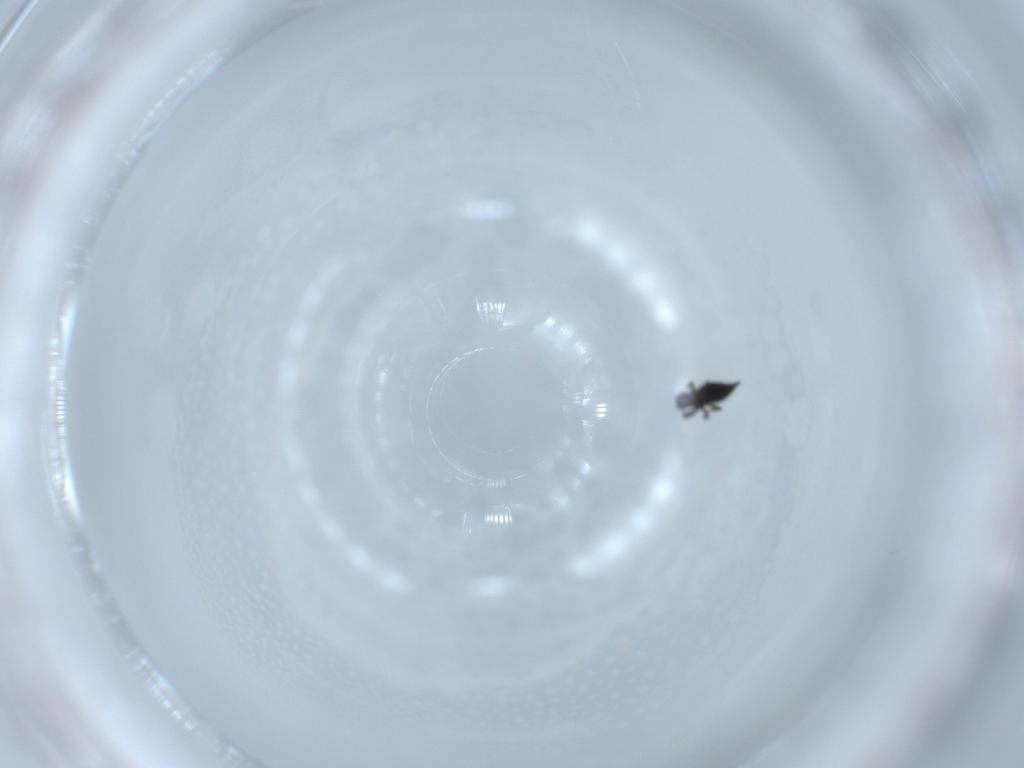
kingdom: Animalia
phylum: Arthropoda
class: Insecta
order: Thysanoptera
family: Phlaeothripidae
